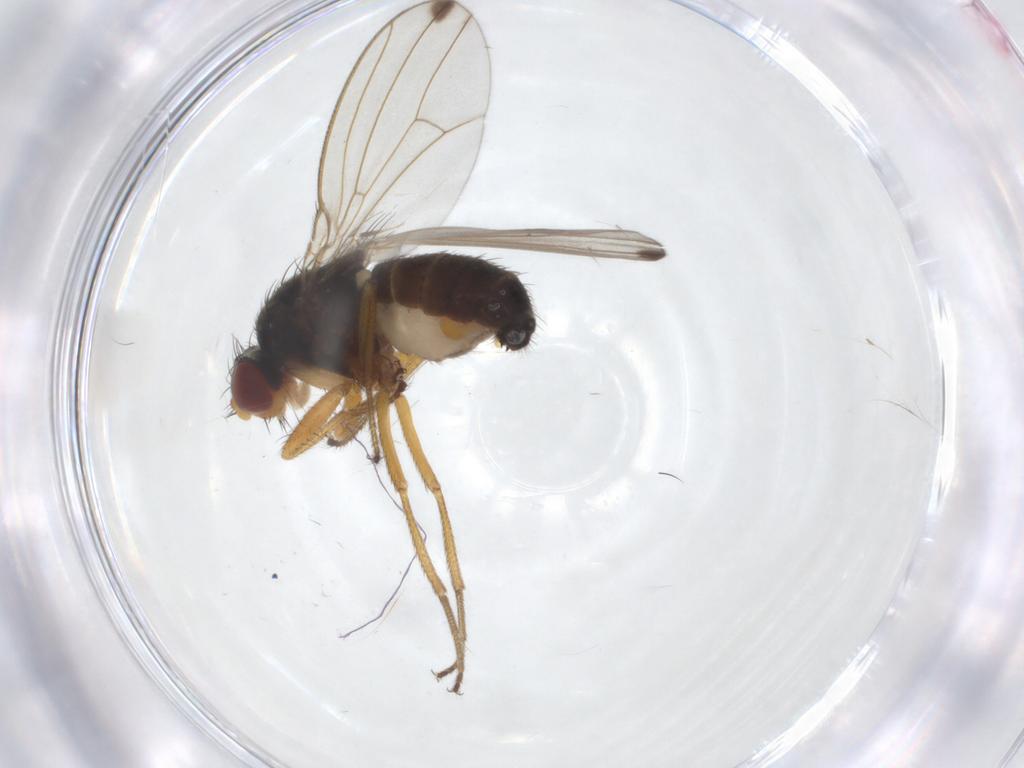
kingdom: Animalia
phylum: Arthropoda
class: Insecta
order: Diptera
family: Drosophilidae
